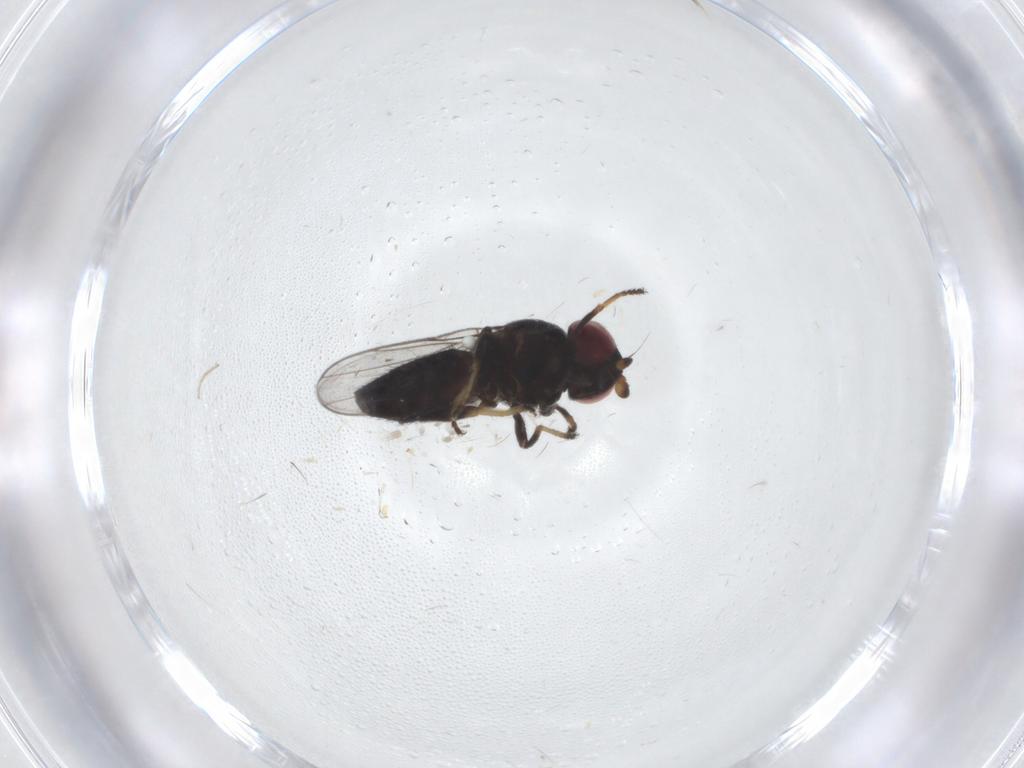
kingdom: Animalia
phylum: Arthropoda
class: Insecta
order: Diptera
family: Chloropidae
